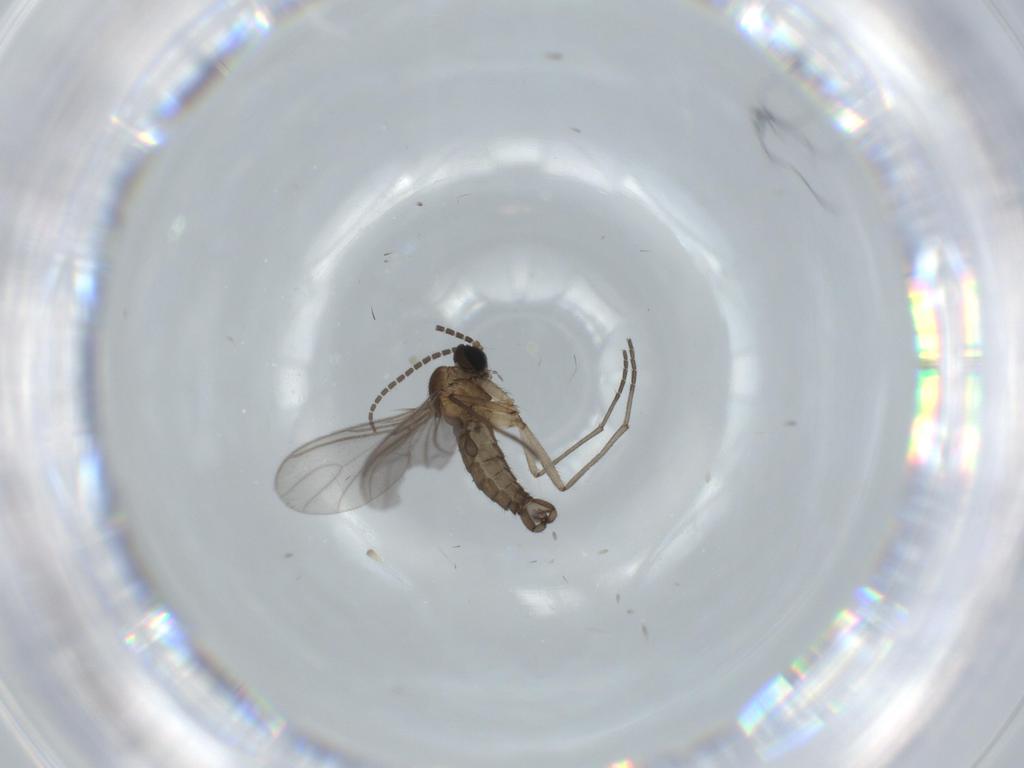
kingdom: Animalia
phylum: Arthropoda
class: Insecta
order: Diptera
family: Sciaridae
